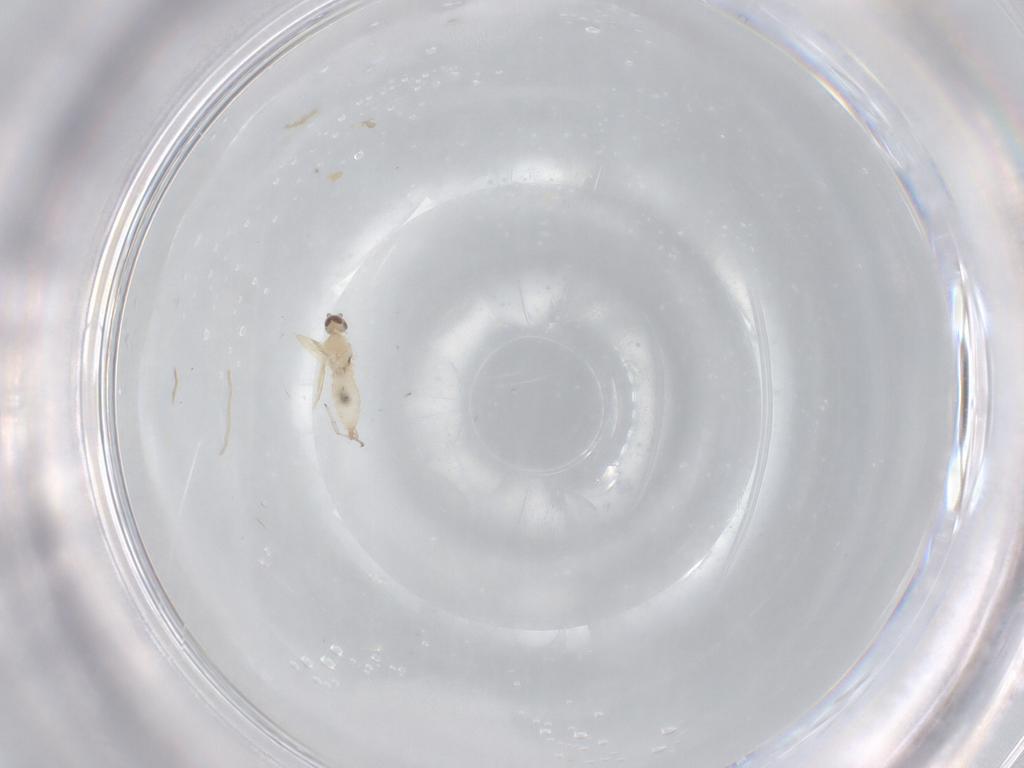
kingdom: Animalia
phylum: Arthropoda
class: Insecta
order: Diptera
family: Cecidomyiidae
